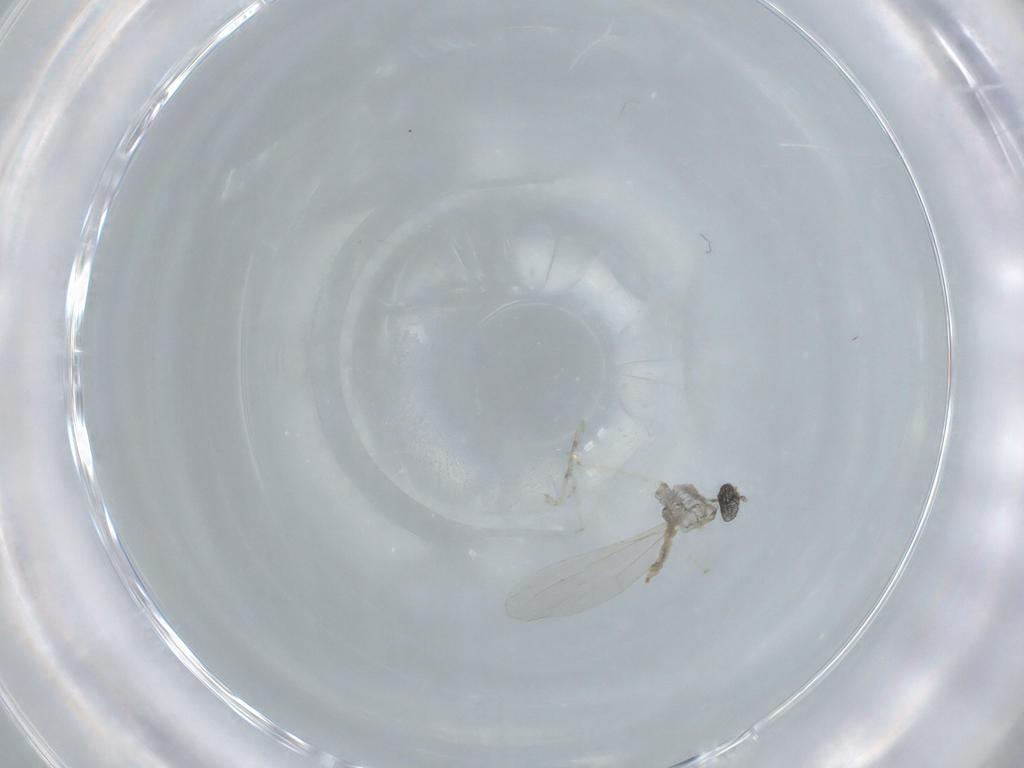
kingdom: Animalia
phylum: Arthropoda
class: Insecta
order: Diptera
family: Cecidomyiidae
